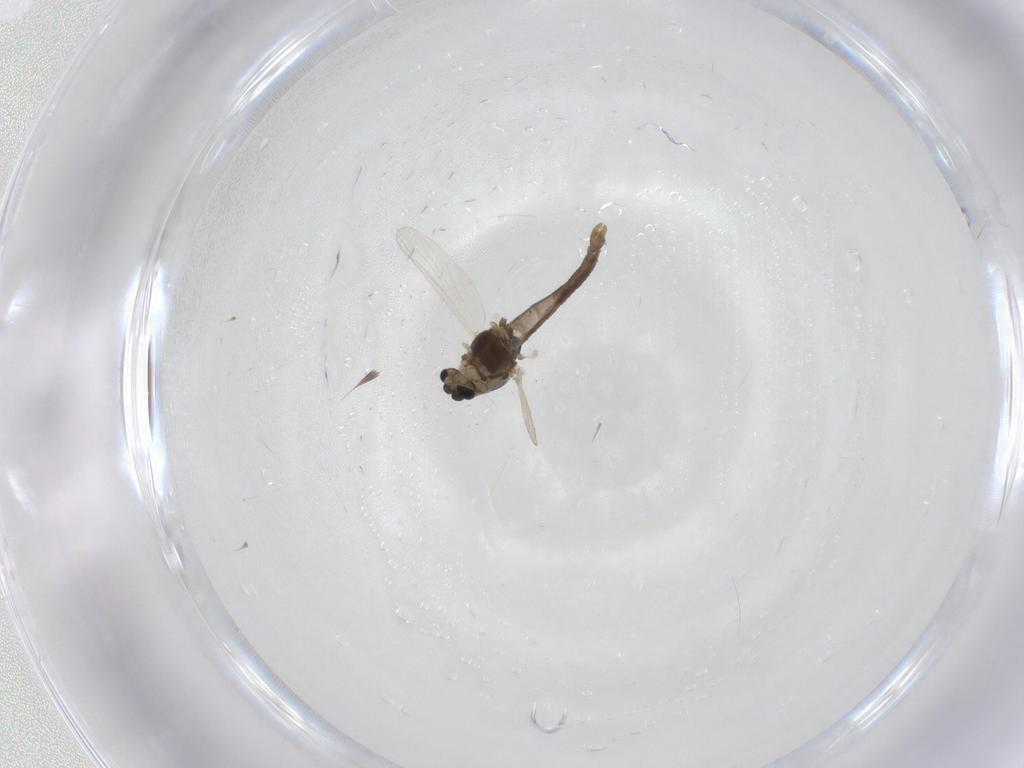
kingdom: Animalia
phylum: Arthropoda
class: Insecta
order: Diptera
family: Chironomidae
